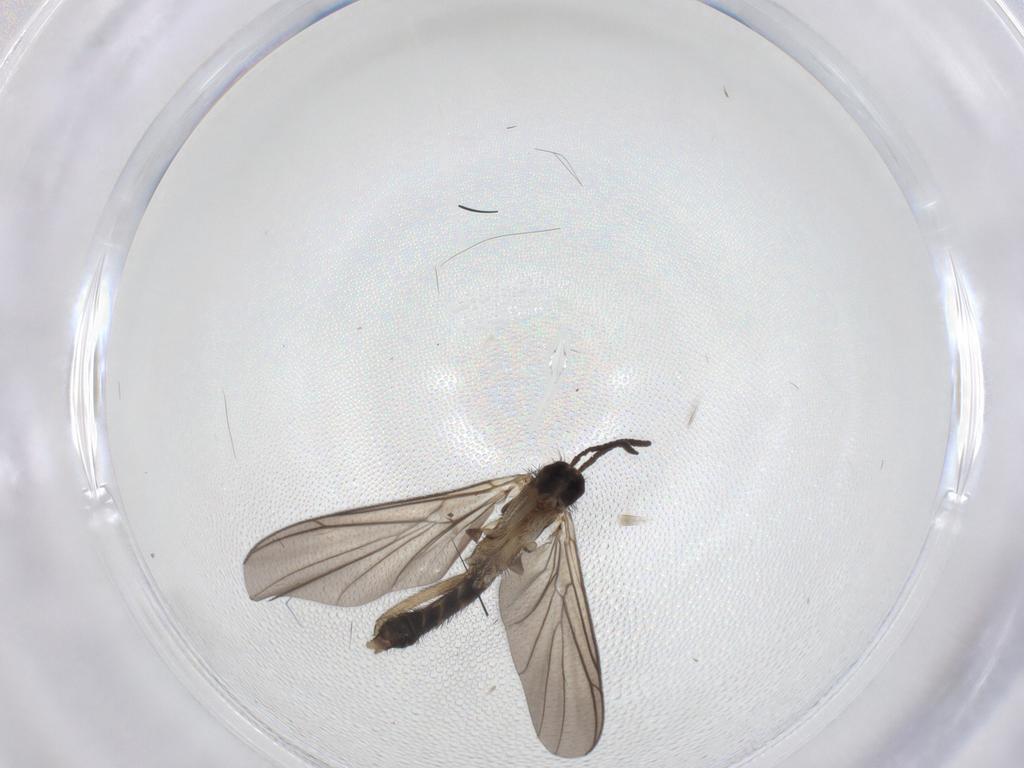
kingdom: Animalia
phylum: Arthropoda
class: Insecta
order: Diptera
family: Keroplatidae
